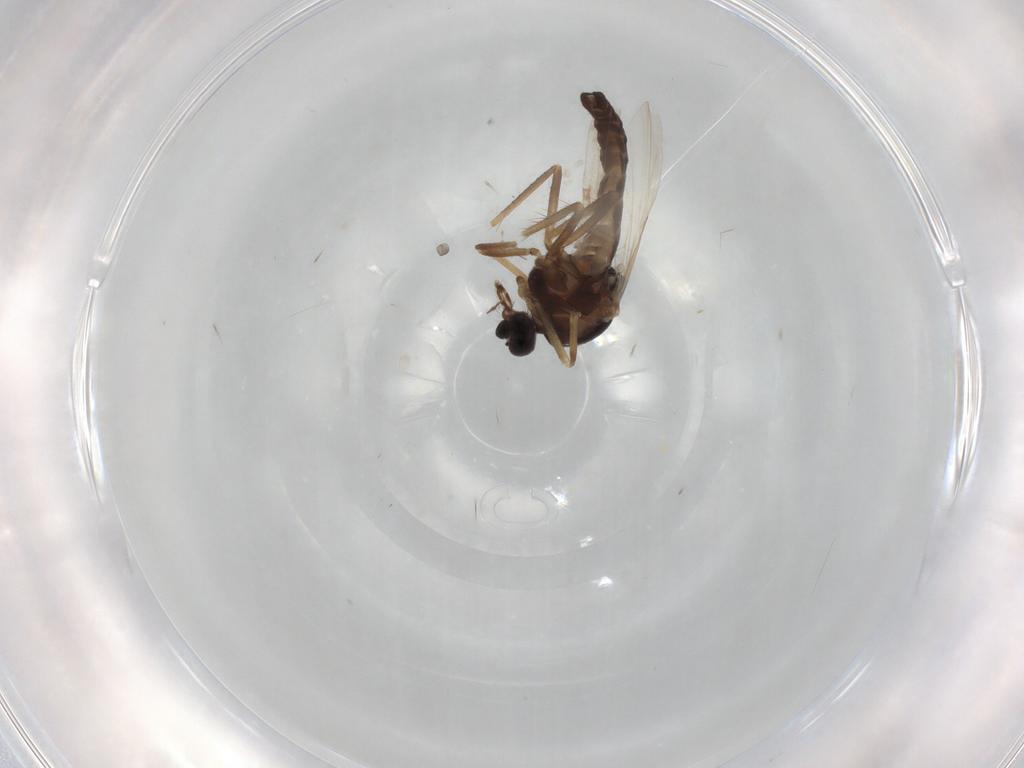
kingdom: Animalia
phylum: Arthropoda
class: Insecta
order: Diptera
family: Ceratopogonidae
